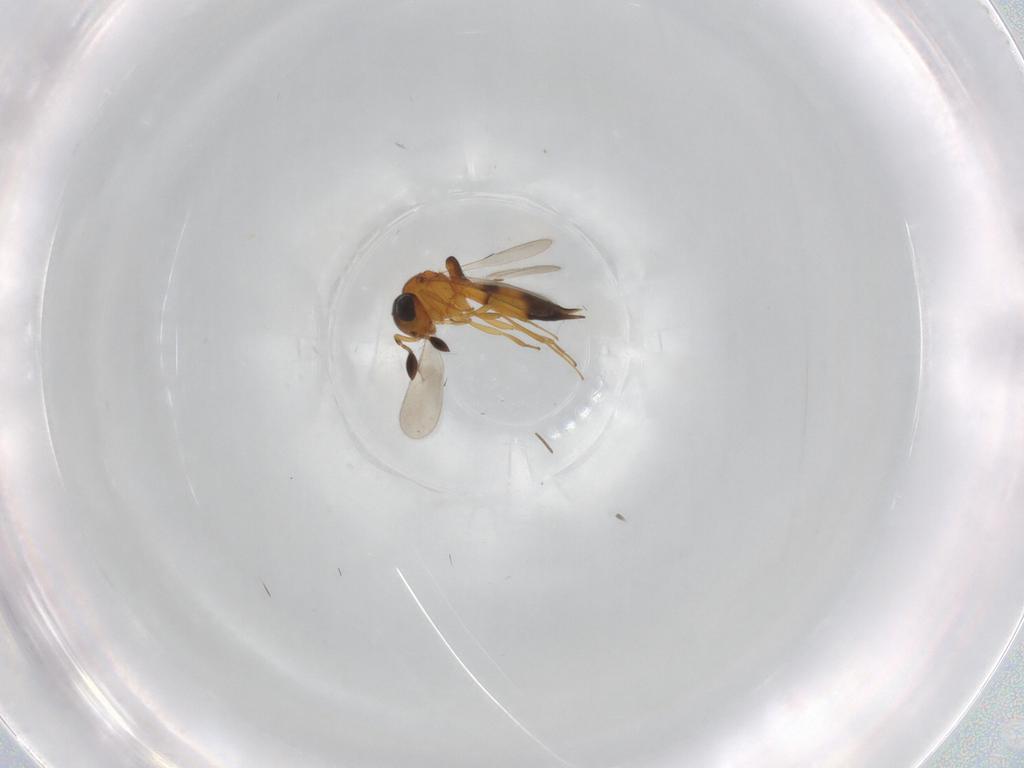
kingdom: Animalia
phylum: Arthropoda
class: Insecta
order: Hymenoptera
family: Scelionidae
